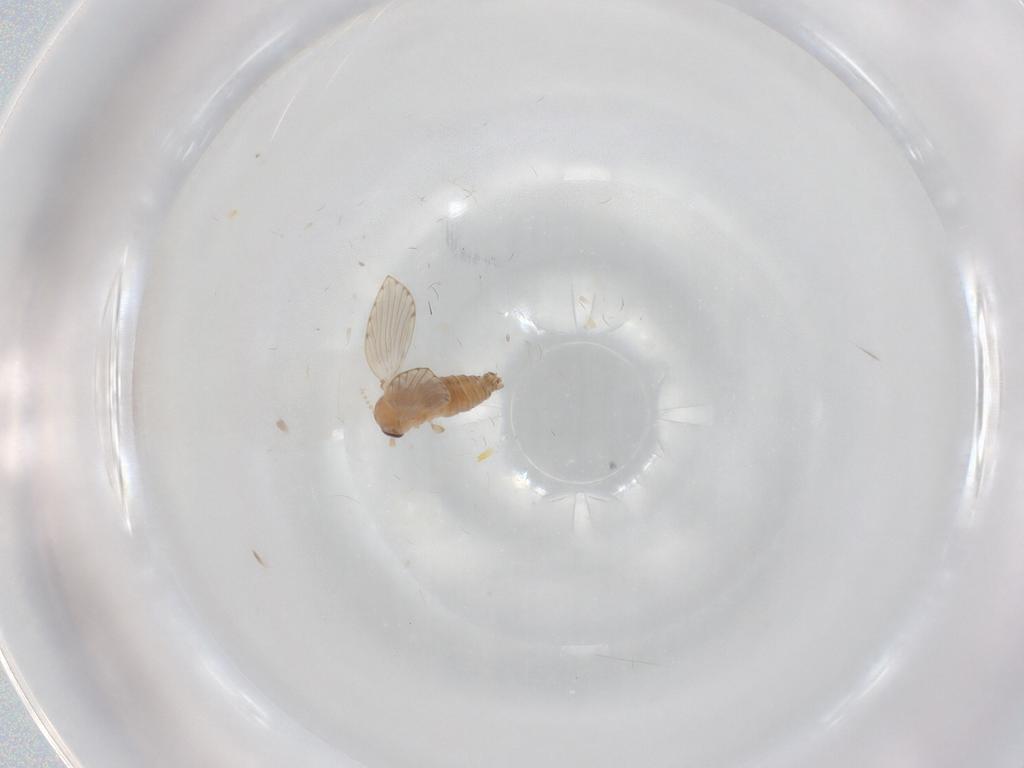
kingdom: Animalia
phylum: Arthropoda
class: Insecta
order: Diptera
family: Psychodidae
